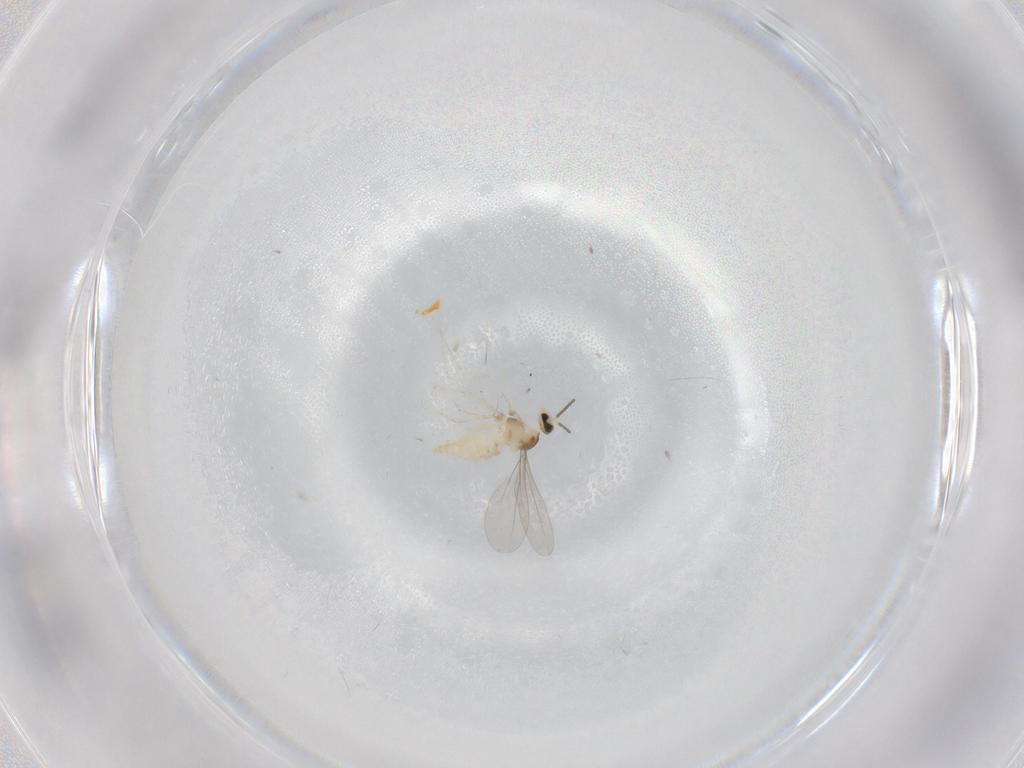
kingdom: Animalia
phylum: Arthropoda
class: Insecta
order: Diptera
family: Cecidomyiidae
